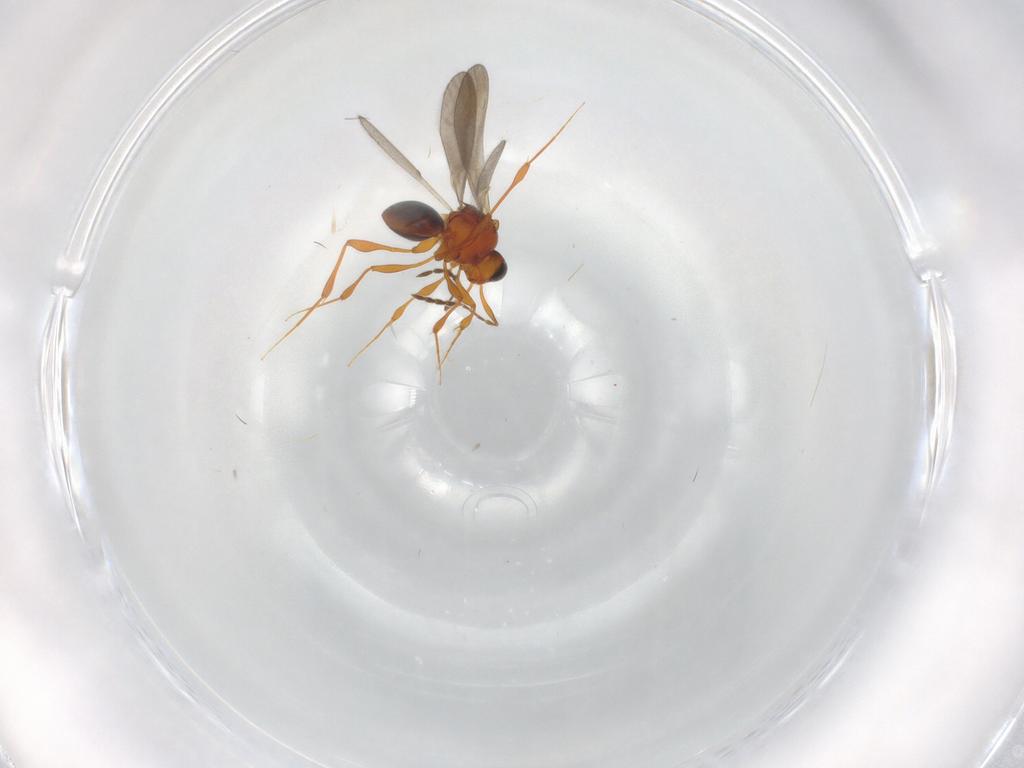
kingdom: Animalia
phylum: Arthropoda
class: Insecta
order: Hymenoptera
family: Platygastridae
